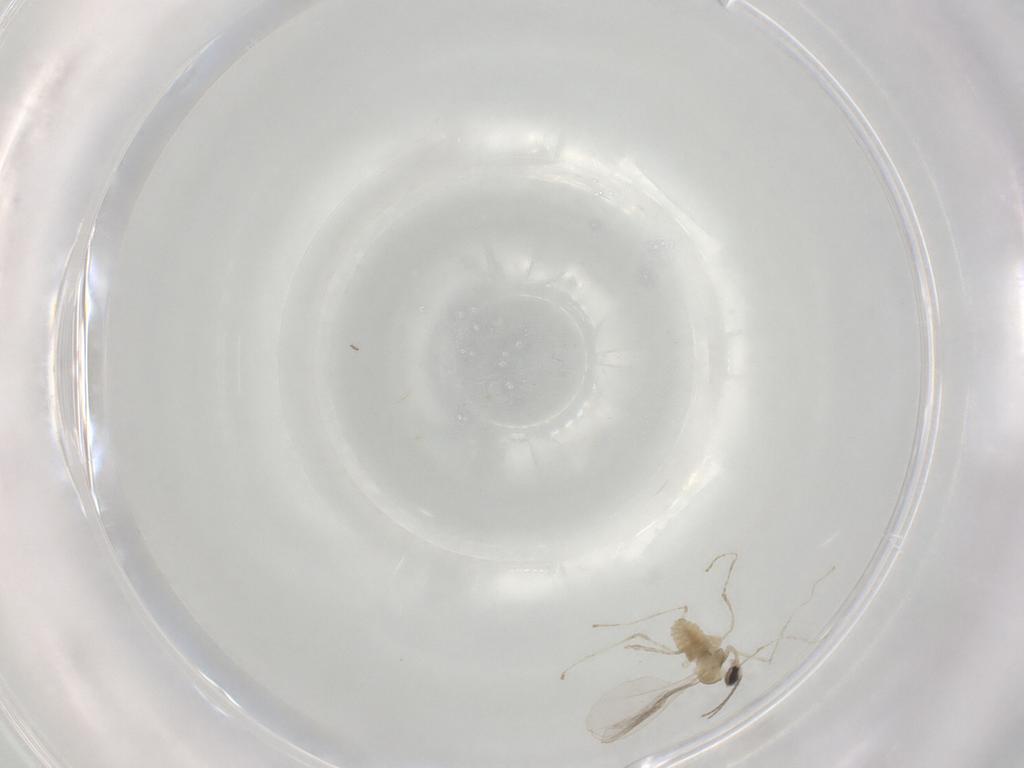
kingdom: Animalia
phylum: Arthropoda
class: Insecta
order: Diptera
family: Cecidomyiidae
